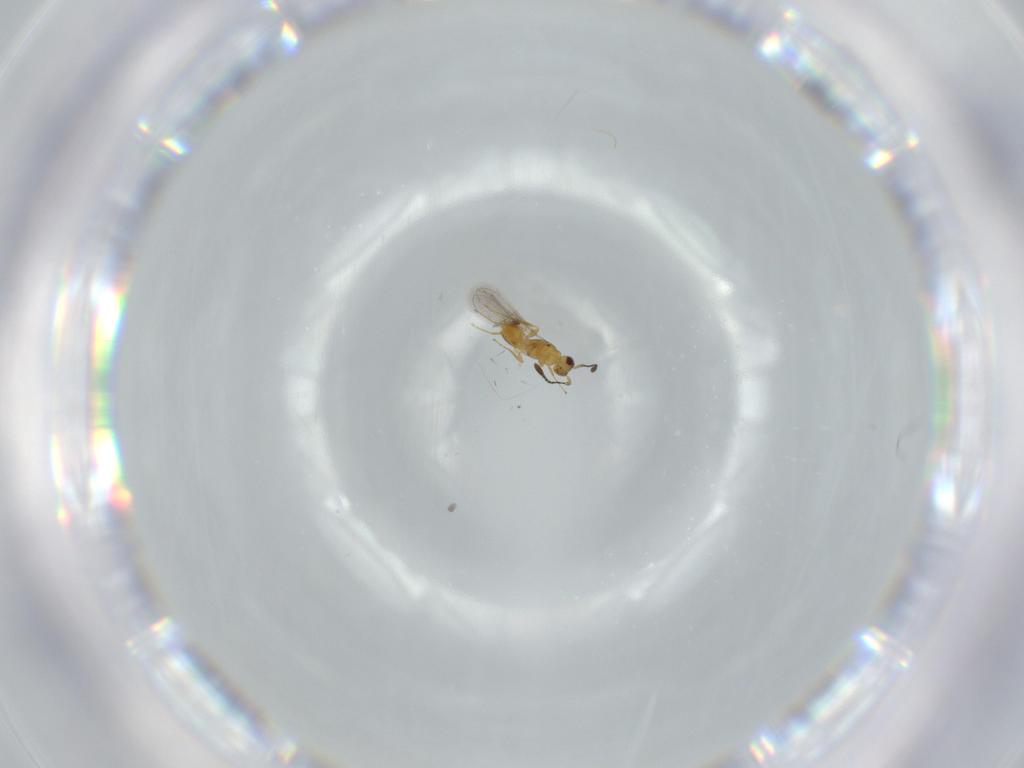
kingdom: Animalia
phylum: Arthropoda
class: Insecta
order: Hymenoptera
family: Mymaridae
